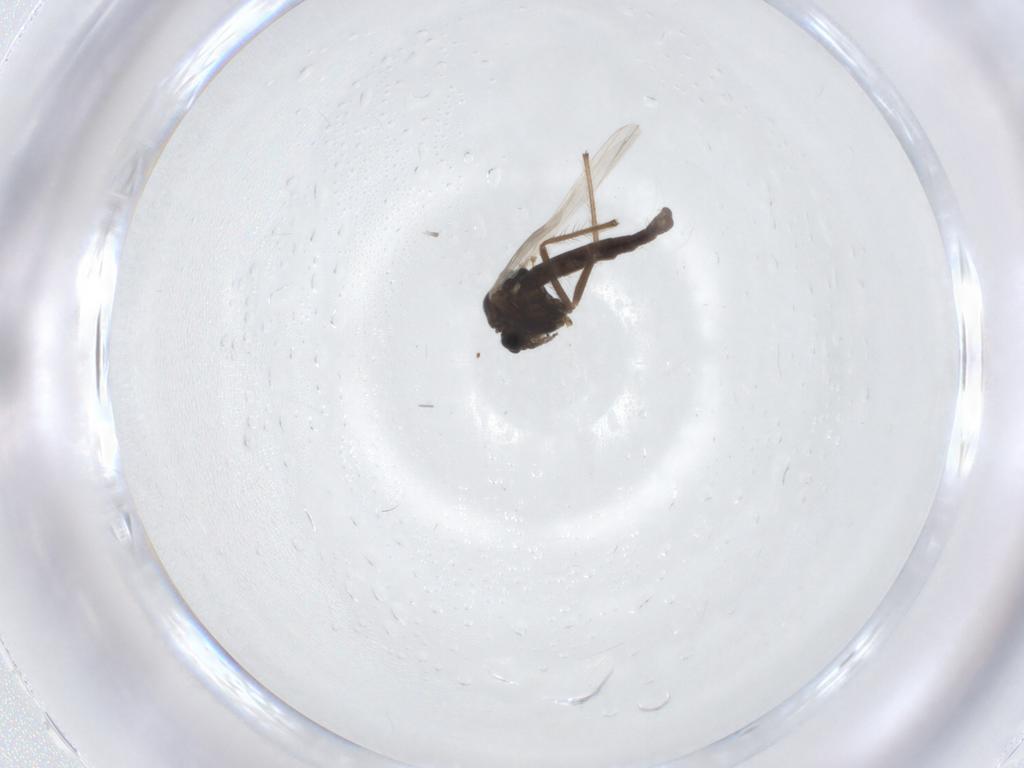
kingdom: Animalia
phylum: Arthropoda
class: Insecta
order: Diptera
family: Chironomidae
